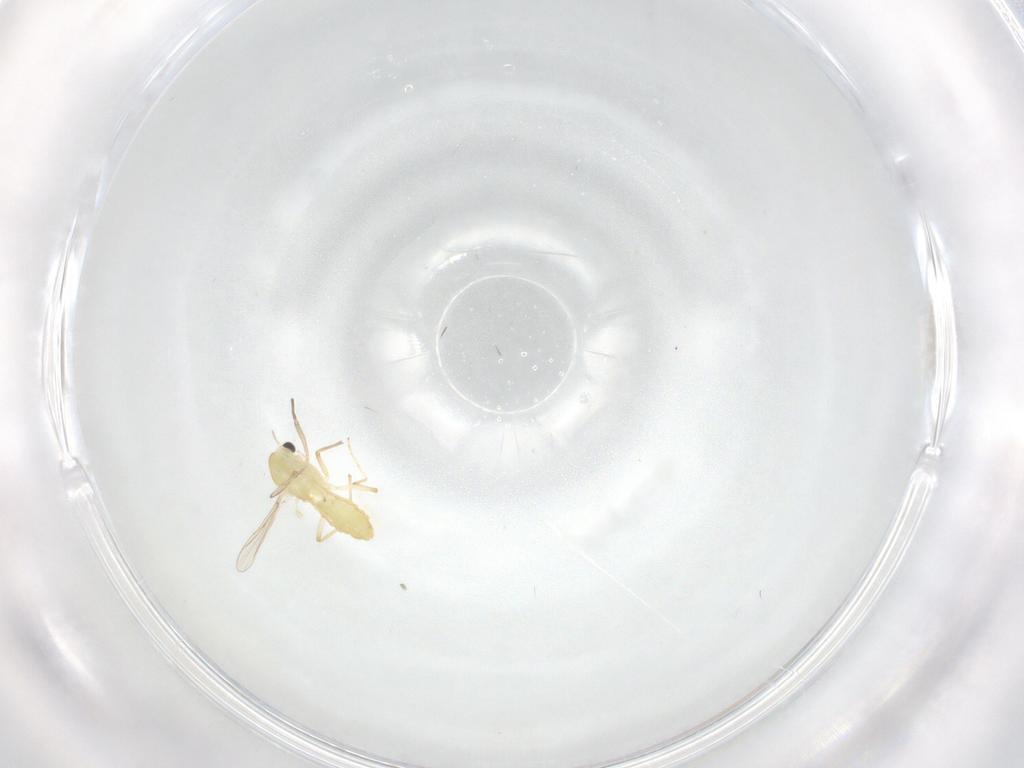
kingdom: Animalia
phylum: Arthropoda
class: Insecta
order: Diptera
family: Chironomidae
